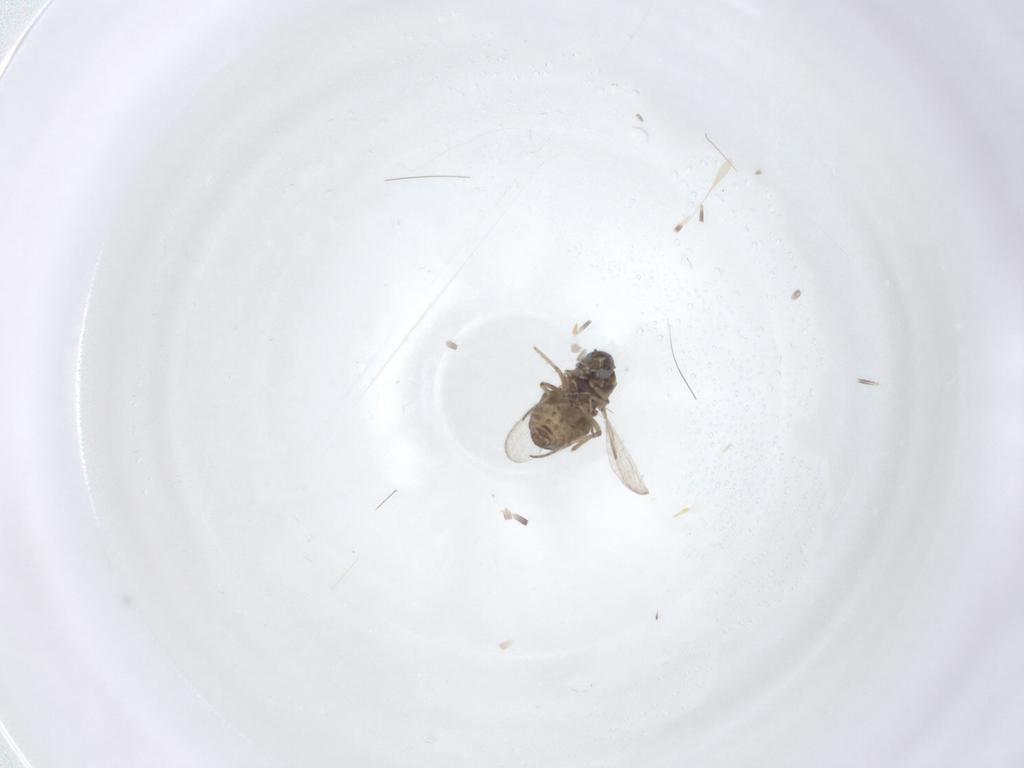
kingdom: Animalia
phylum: Arthropoda
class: Insecta
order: Diptera
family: Ceratopogonidae
